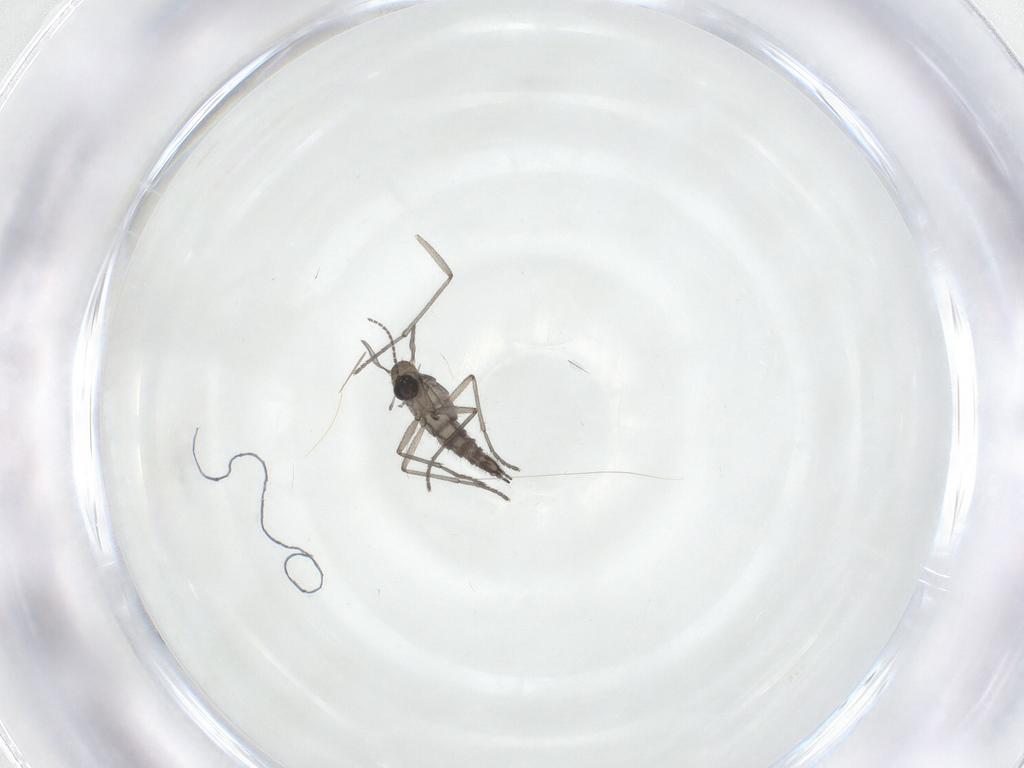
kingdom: Animalia
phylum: Arthropoda
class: Insecta
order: Diptera
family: Sciaridae
